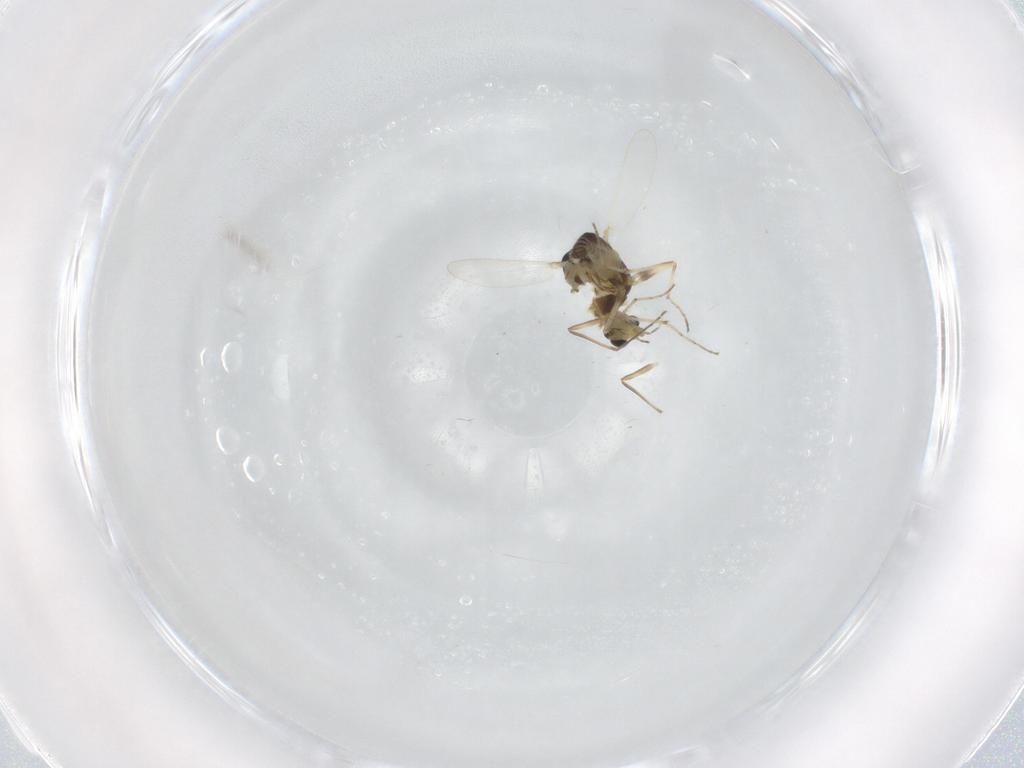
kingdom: Animalia
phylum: Arthropoda
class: Insecta
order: Diptera
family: Chironomidae
